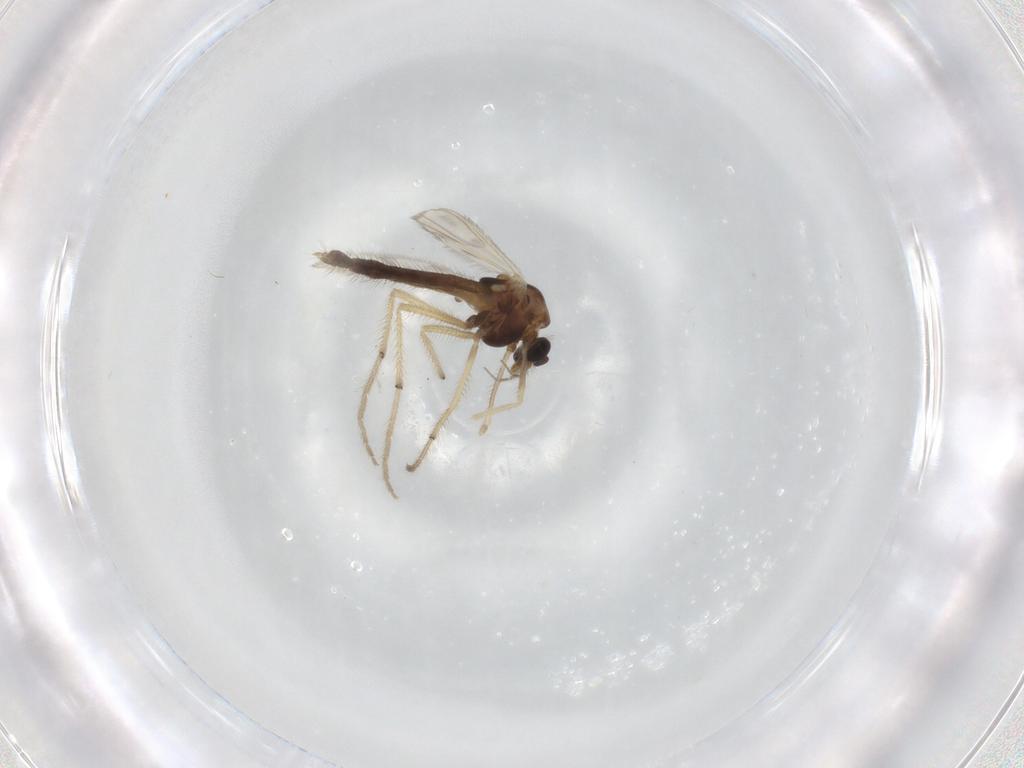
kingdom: Animalia
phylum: Arthropoda
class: Insecta
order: Diptera
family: Chironomidae
